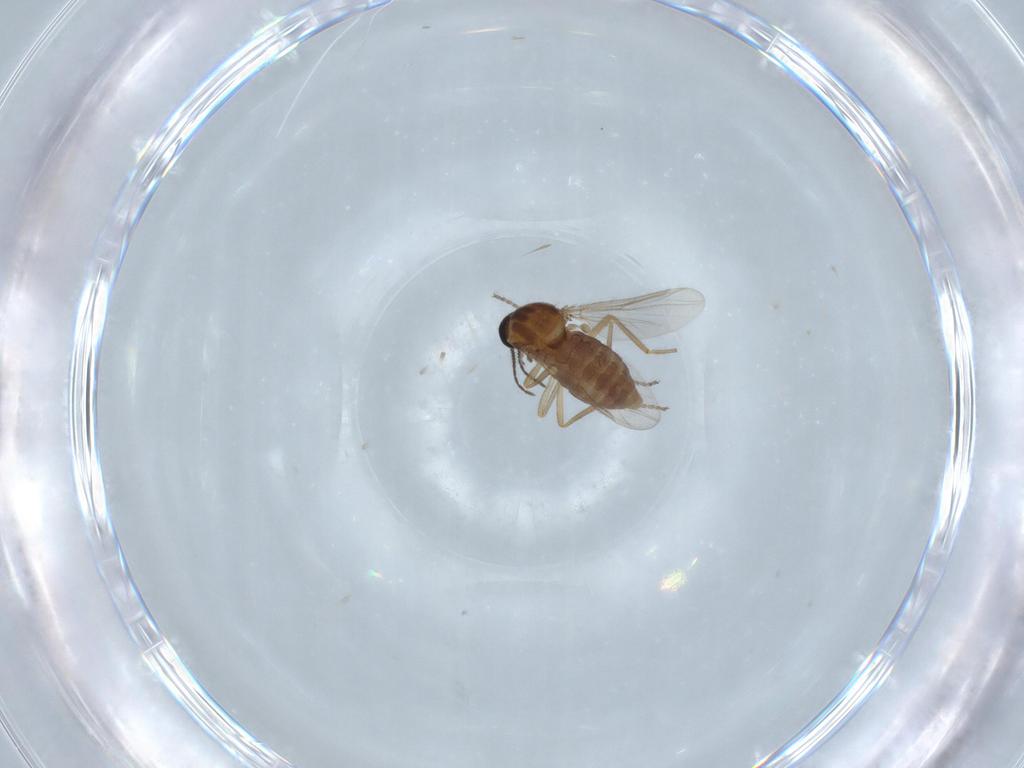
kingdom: Animalia
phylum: Arthropoda
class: Insecta
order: Diptera
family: Ceratopogonidae
